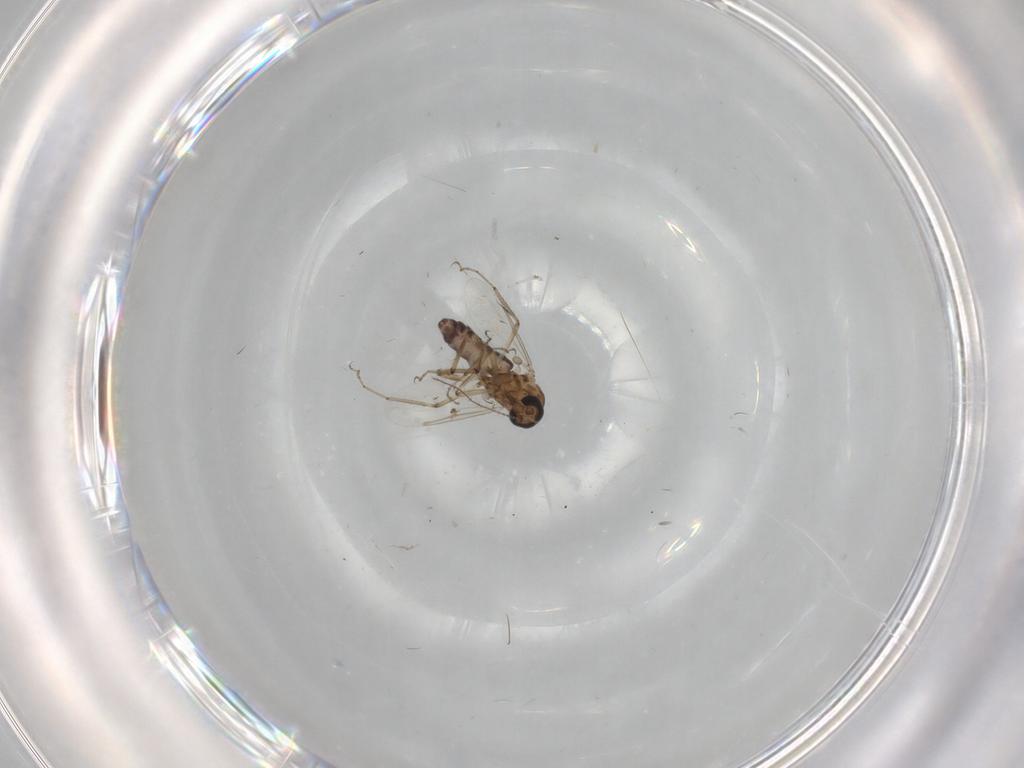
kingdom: Animalia
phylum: Arthropoda
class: Insecta
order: Diptera
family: Ceratopogonidae
